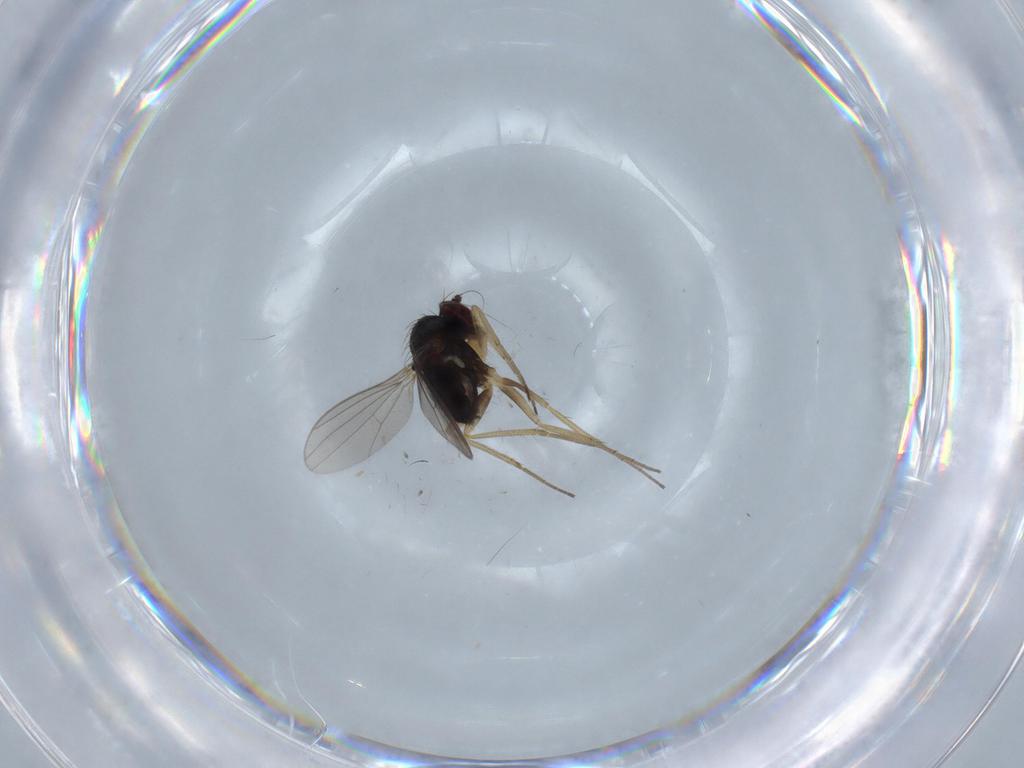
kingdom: Animalia
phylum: Arthropoda
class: Insecta
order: Diptera
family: Dolichopodidae
